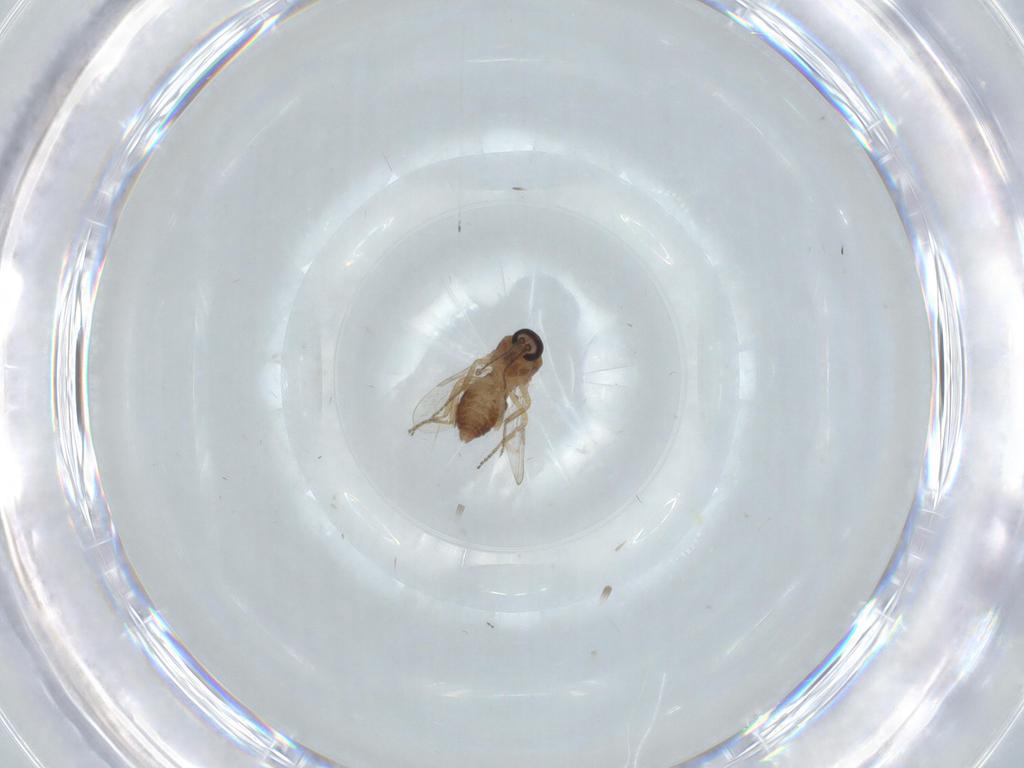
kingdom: Animalia
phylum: Arthropoda
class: Insecta
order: Diptera
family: Ceratopogonidae
